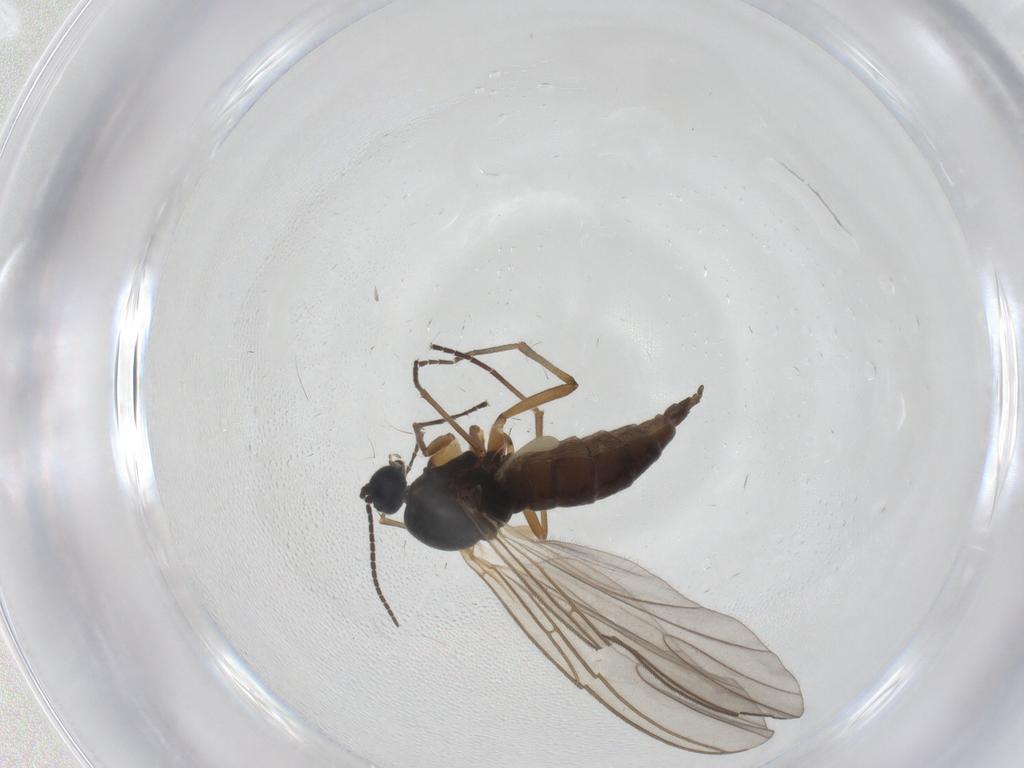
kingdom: Animalia
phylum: Arthropoda
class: Insecta
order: Diptera
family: Sciaridae
